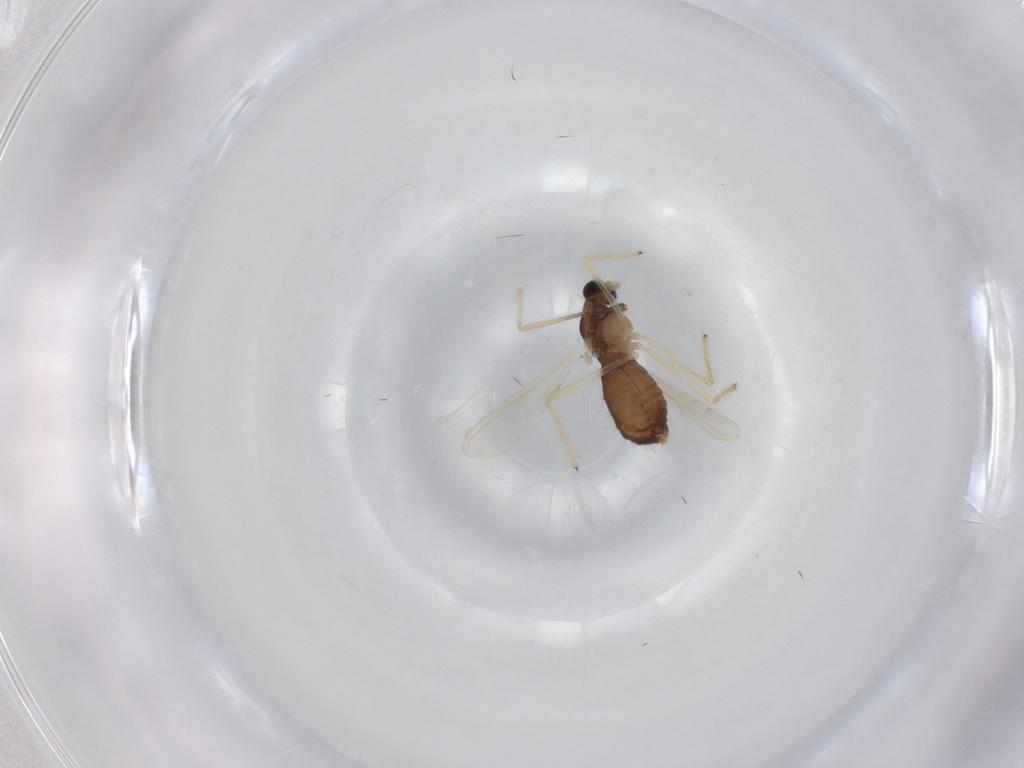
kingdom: Animalia
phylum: Arthropoda
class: Insecta
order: Diptera
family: Chironomidae
